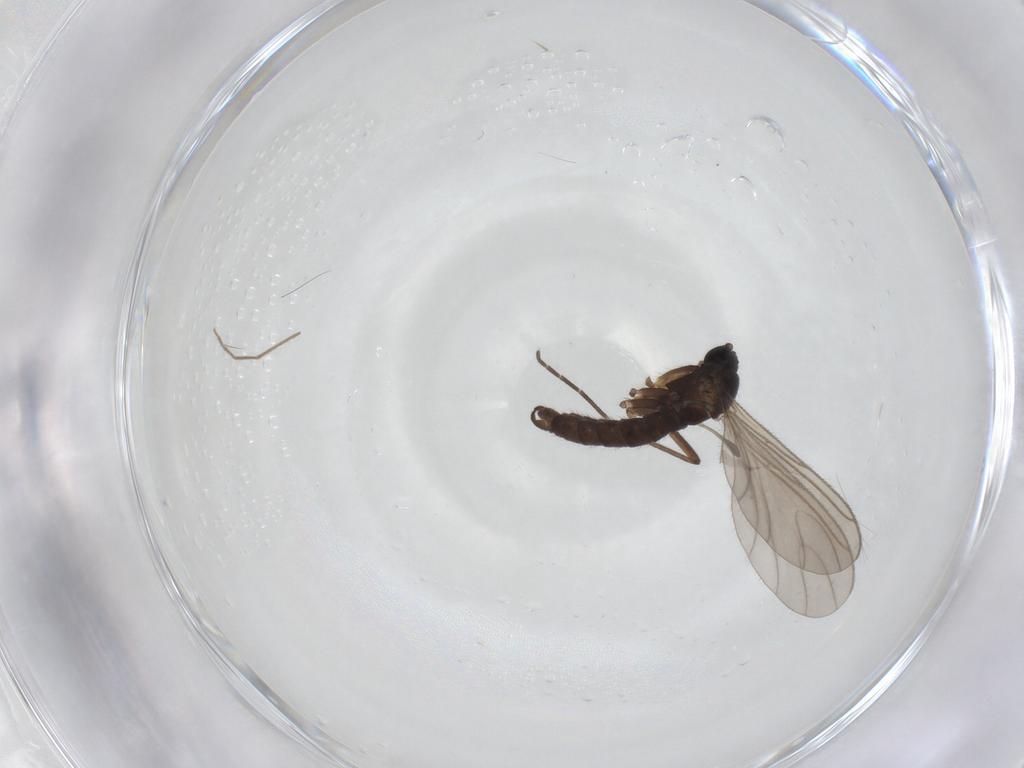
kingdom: Animalia
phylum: Arthropoda
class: Insecta
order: Diptera
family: Sciaridae
